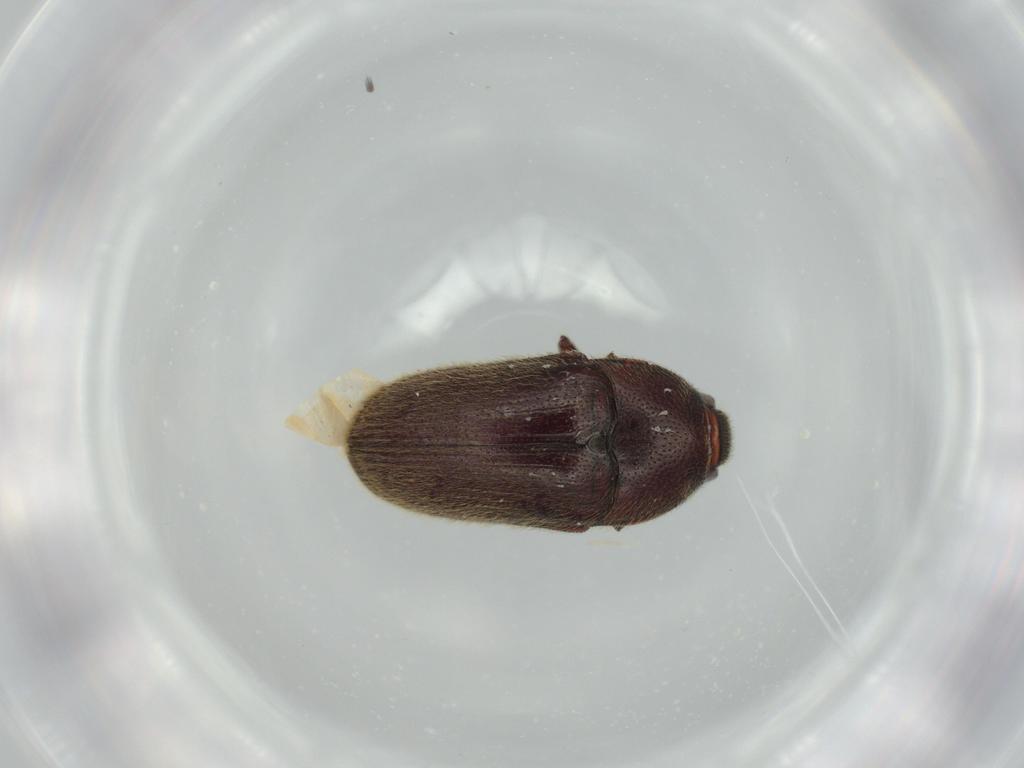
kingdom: Animalia
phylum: Arthropoda
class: Insecta
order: Coleoptera
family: Throscidae
